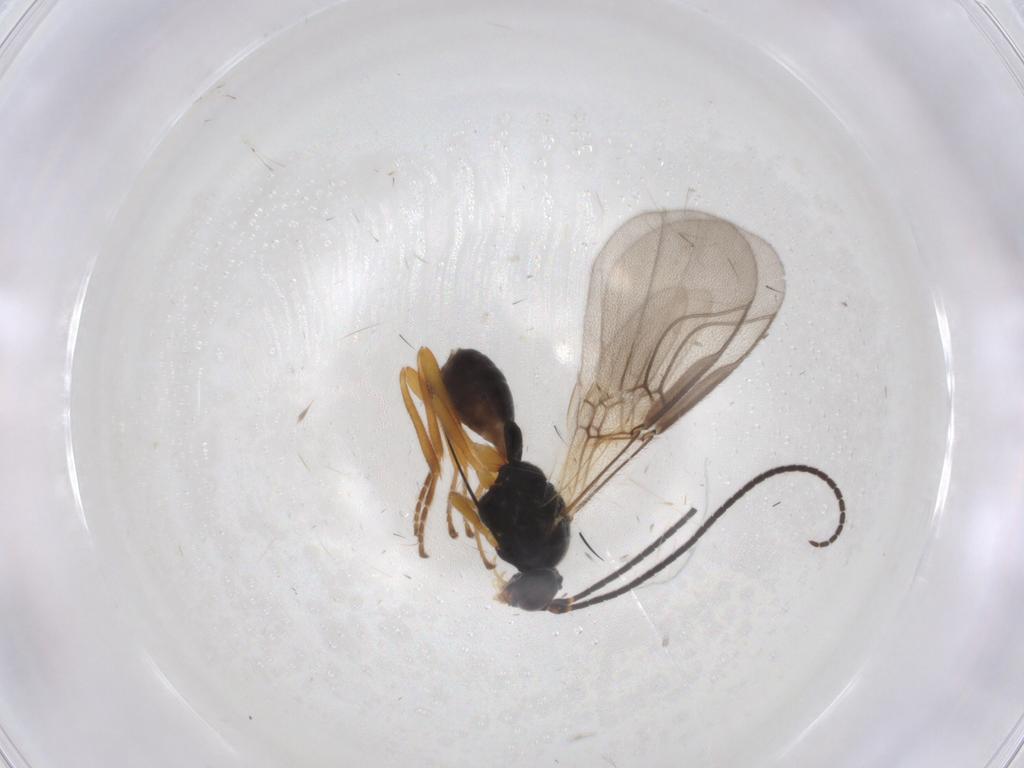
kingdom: Animalia
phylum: Arthropoda
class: Insecta
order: Hymenoptera
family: Braconidae
